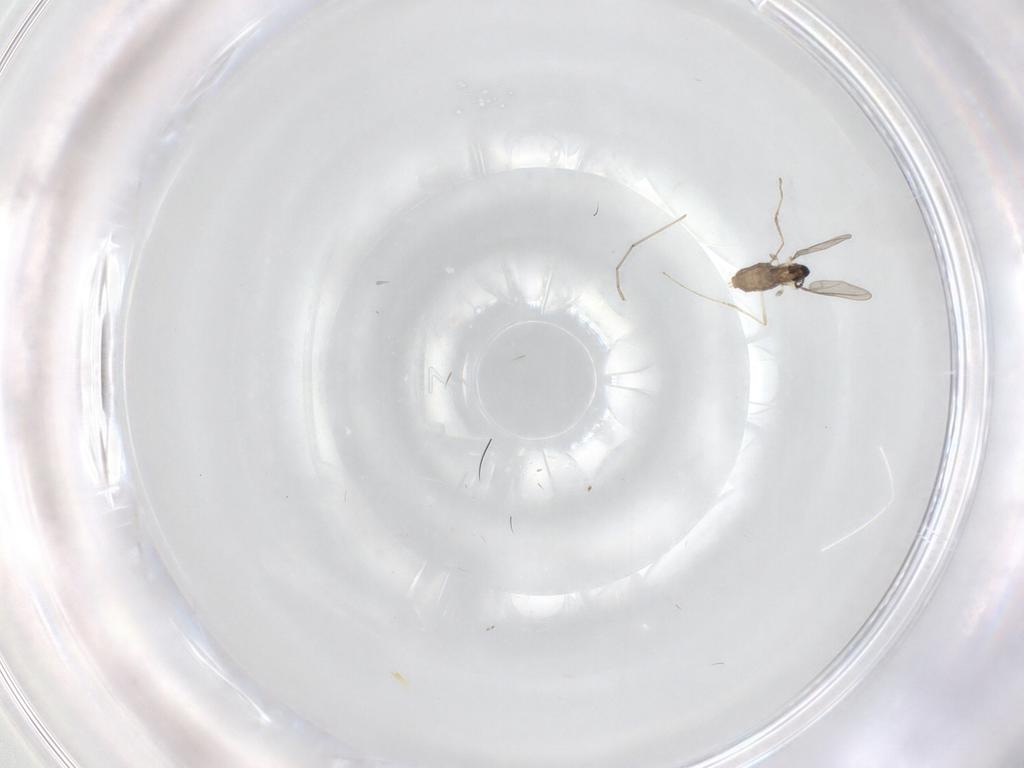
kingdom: Animalia
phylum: Arthropoda
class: Insecta
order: Diptera
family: Cecidomyiidae
